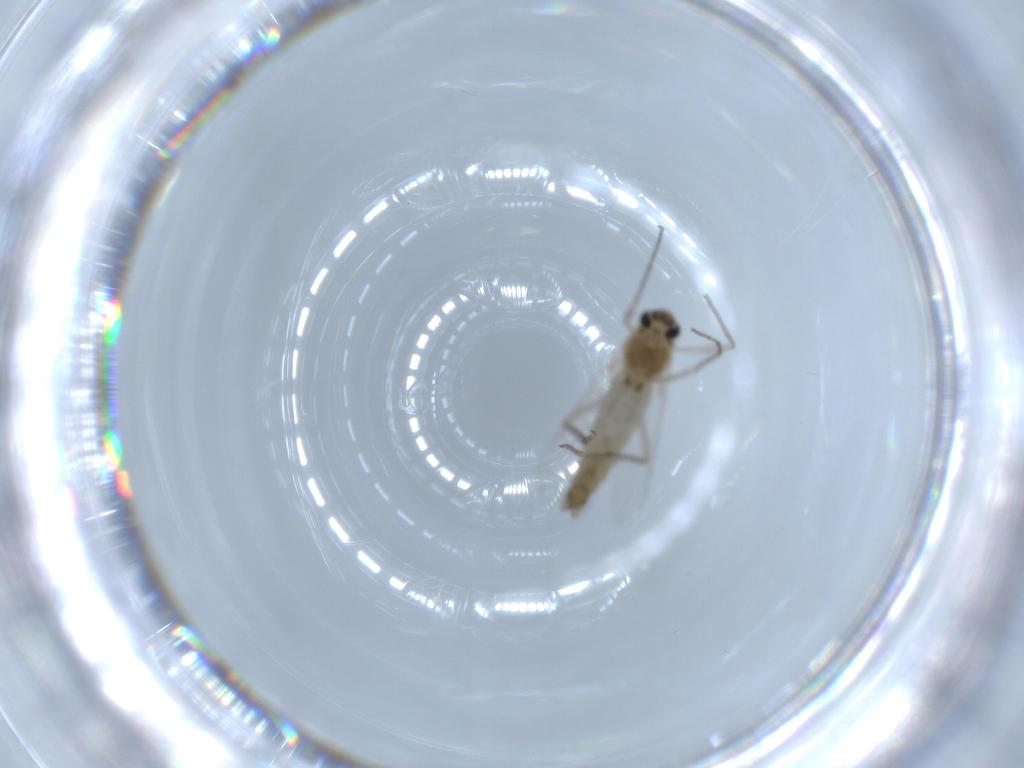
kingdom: Animalia
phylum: Arthropoda
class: Insecta
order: Diptera
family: Chironomidae
